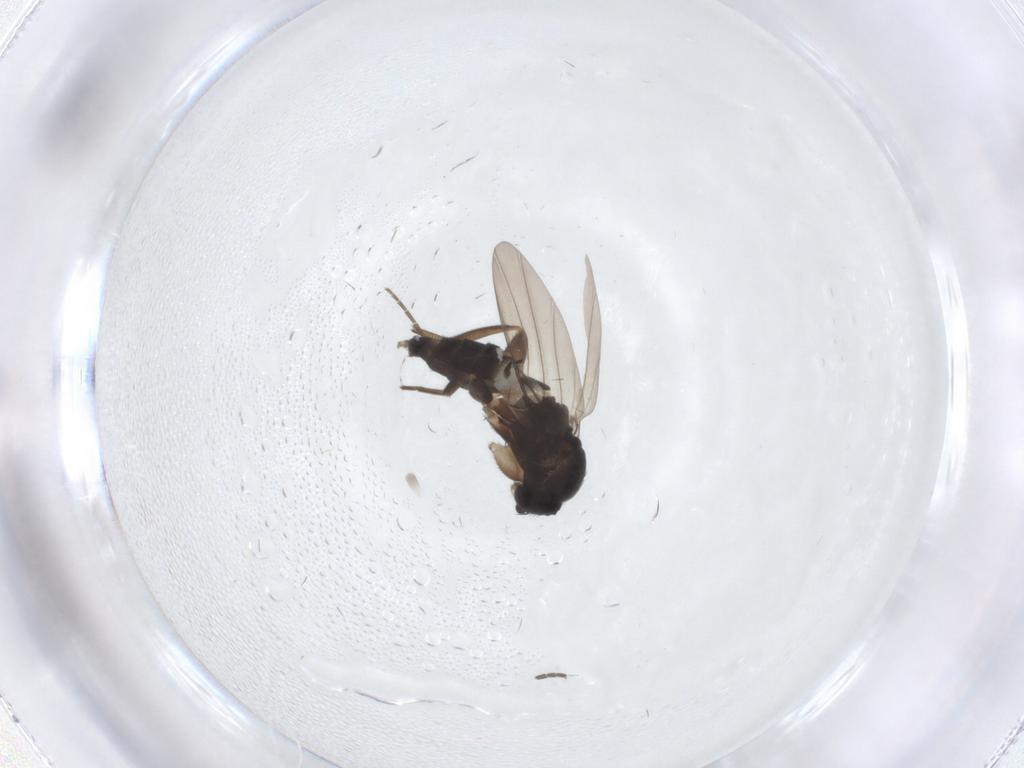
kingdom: Animalia
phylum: Arthropoda
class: Insecta
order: Diptera
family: Phoridae
